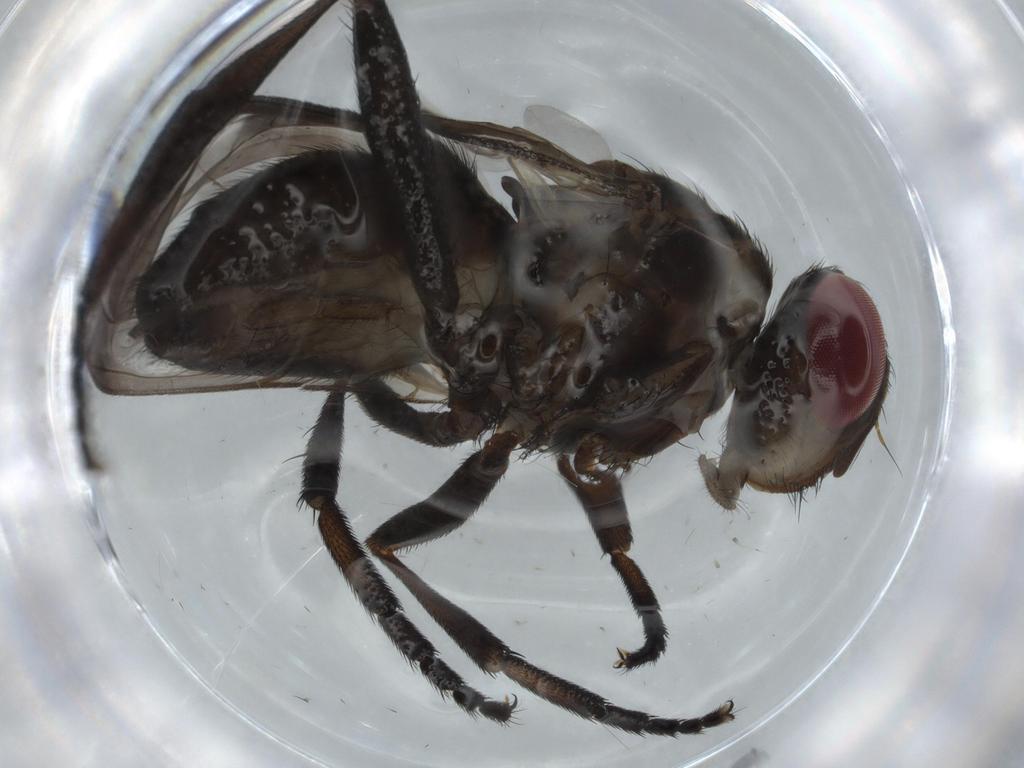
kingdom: Animalia
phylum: Arthropoda
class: Insecta
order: Diptera
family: Calliphoridae
